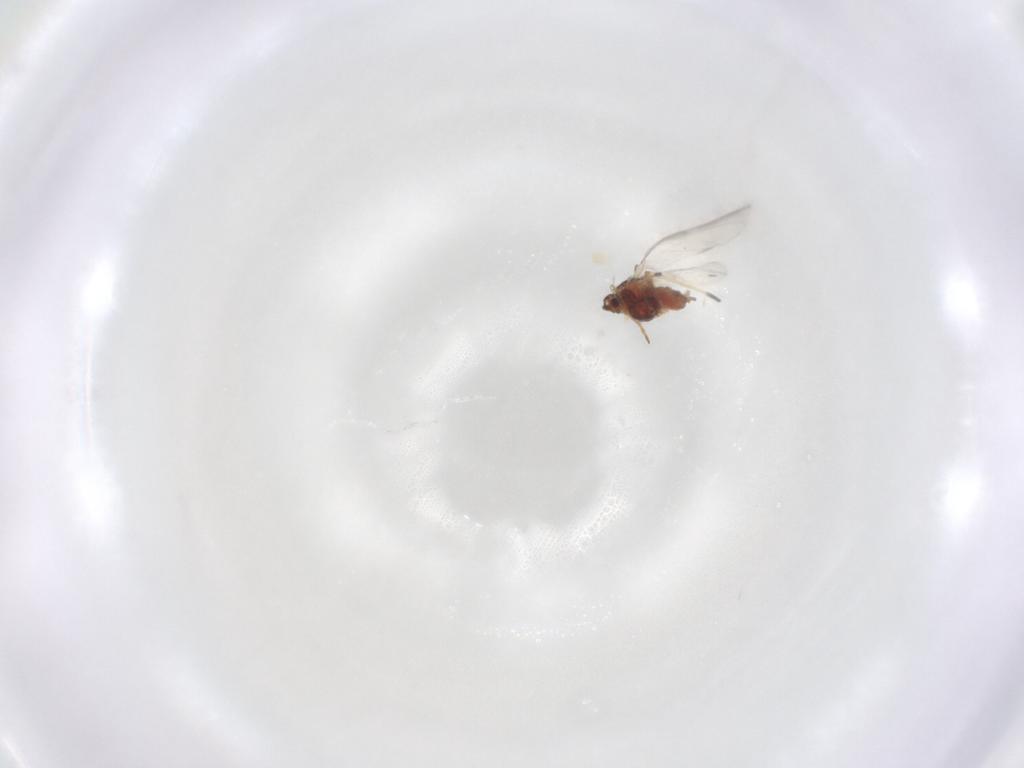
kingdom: Animalia
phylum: Arthropoda
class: Insecta
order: Hemiptera
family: Aphididae
